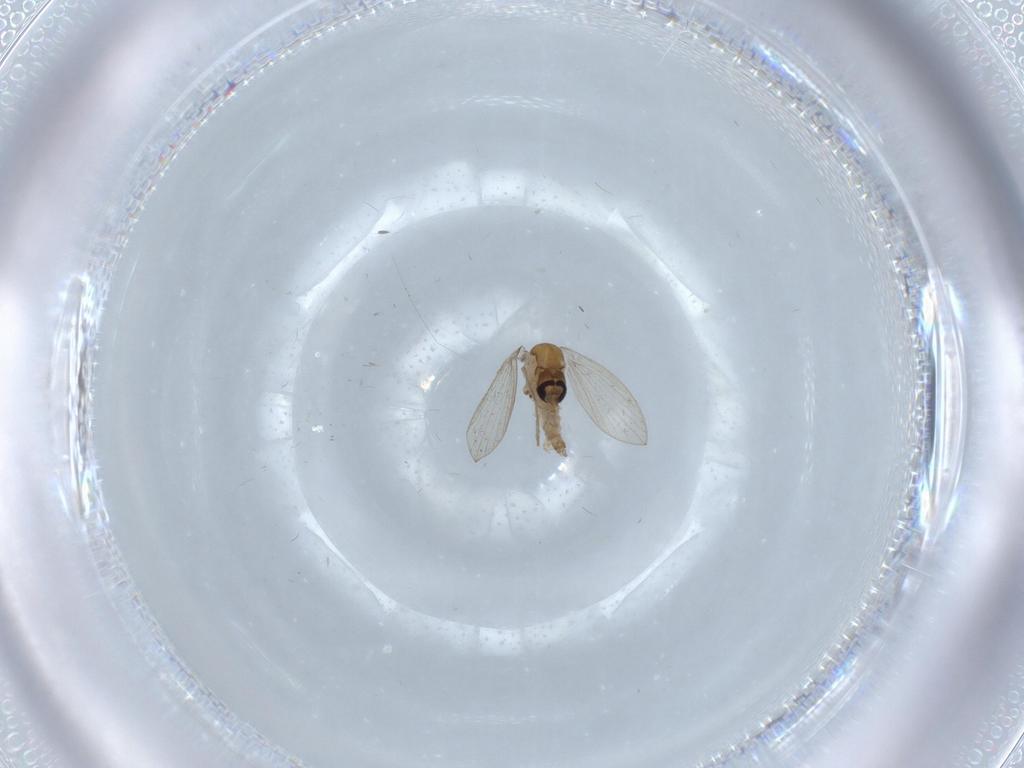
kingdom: Animalia
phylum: Arthropoda
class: Insecta
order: Diptera
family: Psychodidae
